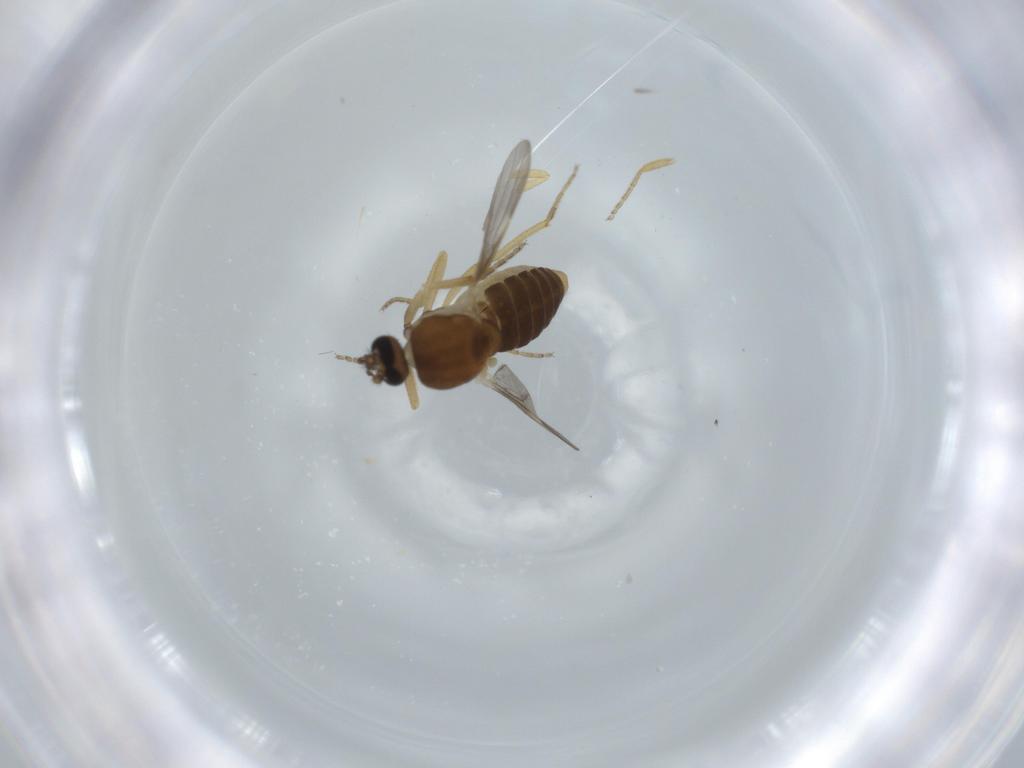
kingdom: Animalia
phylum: Arthropoda
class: Insecta
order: Diptera
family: Ceratopogonidae
